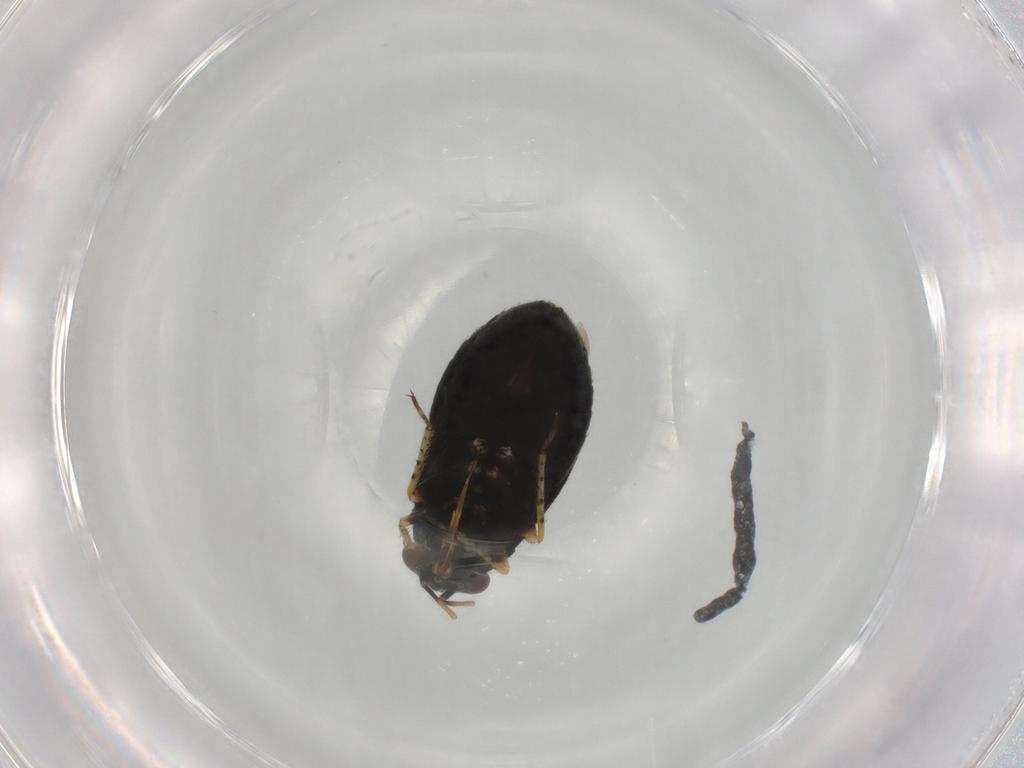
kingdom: Animalia
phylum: Arthropoda
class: Insecta
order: Hemiptera
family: Miridae
